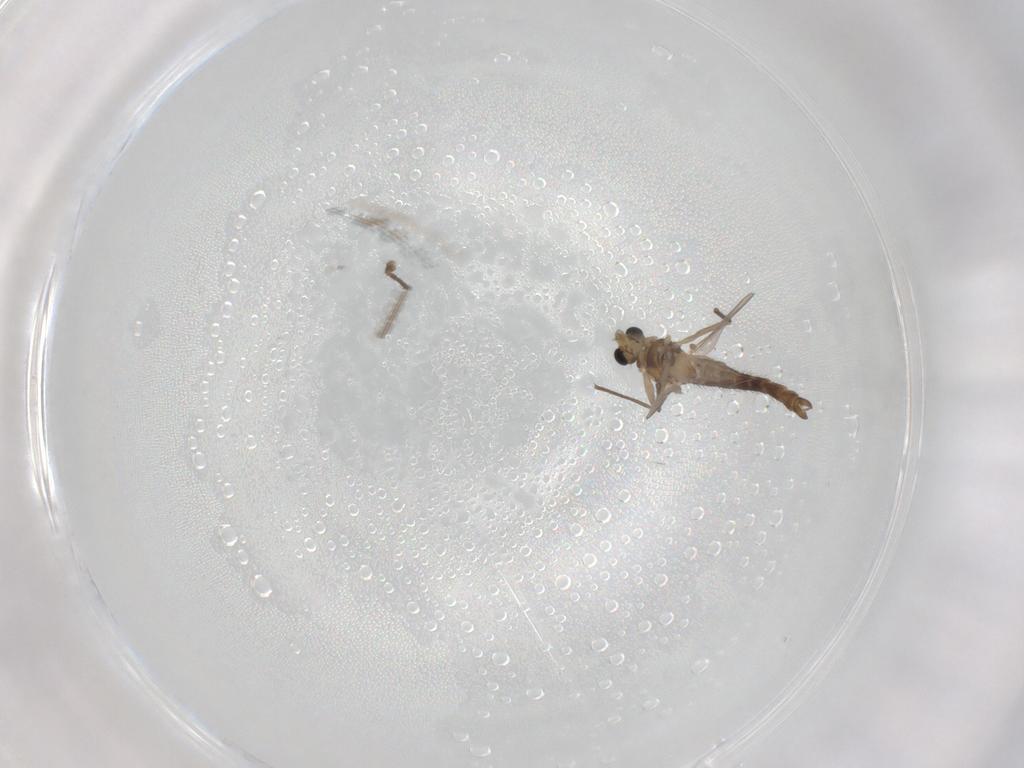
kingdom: Animalia
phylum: Arthropoda
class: Insecta
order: Diptera
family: Chironomidae
